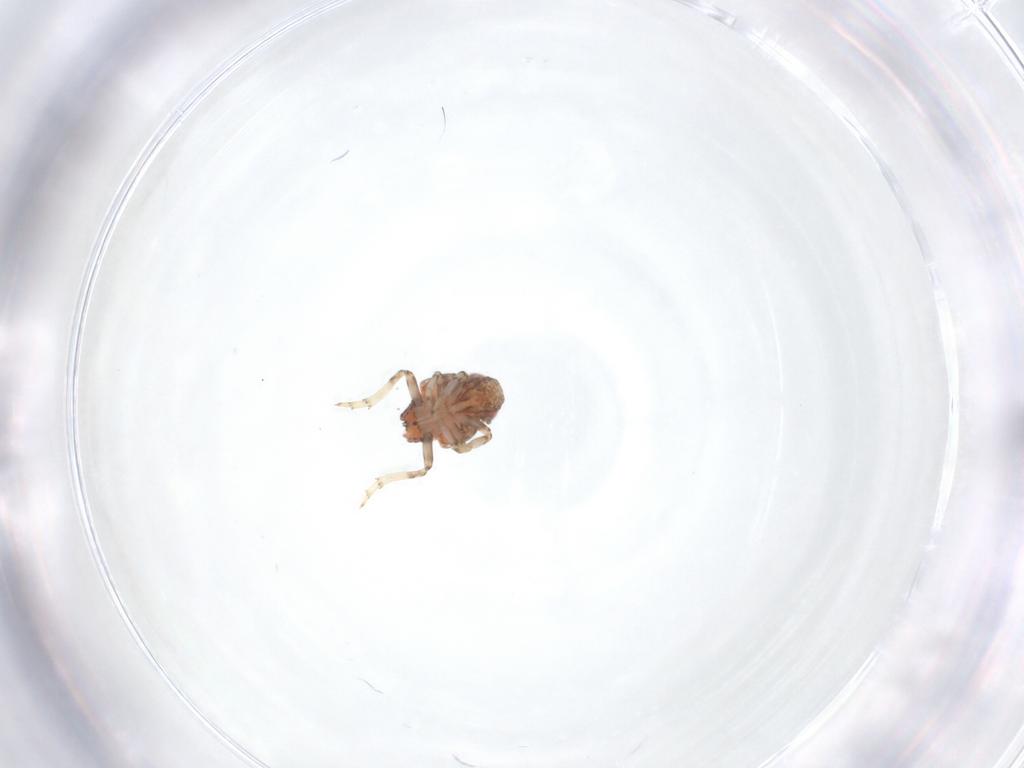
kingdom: Animalia
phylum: Arthropoda
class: Insecta
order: Hemiptera
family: Issidae
